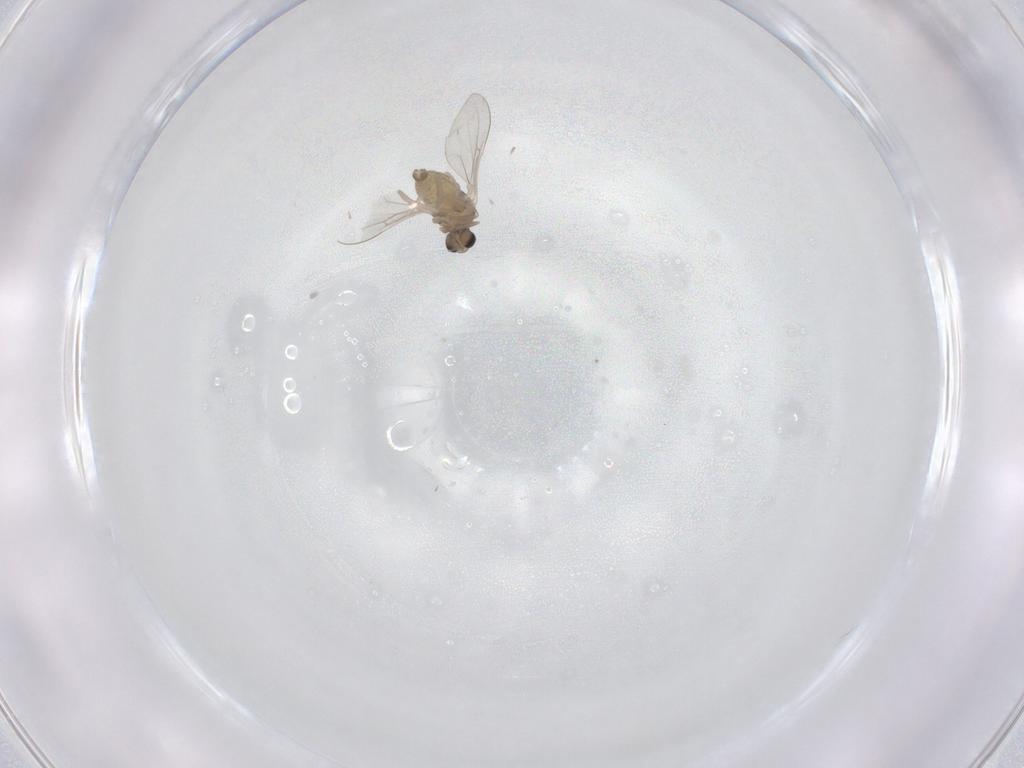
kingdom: Animalia
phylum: Arthropoda
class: Insecta
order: Diptera
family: Cecidomyiidae
